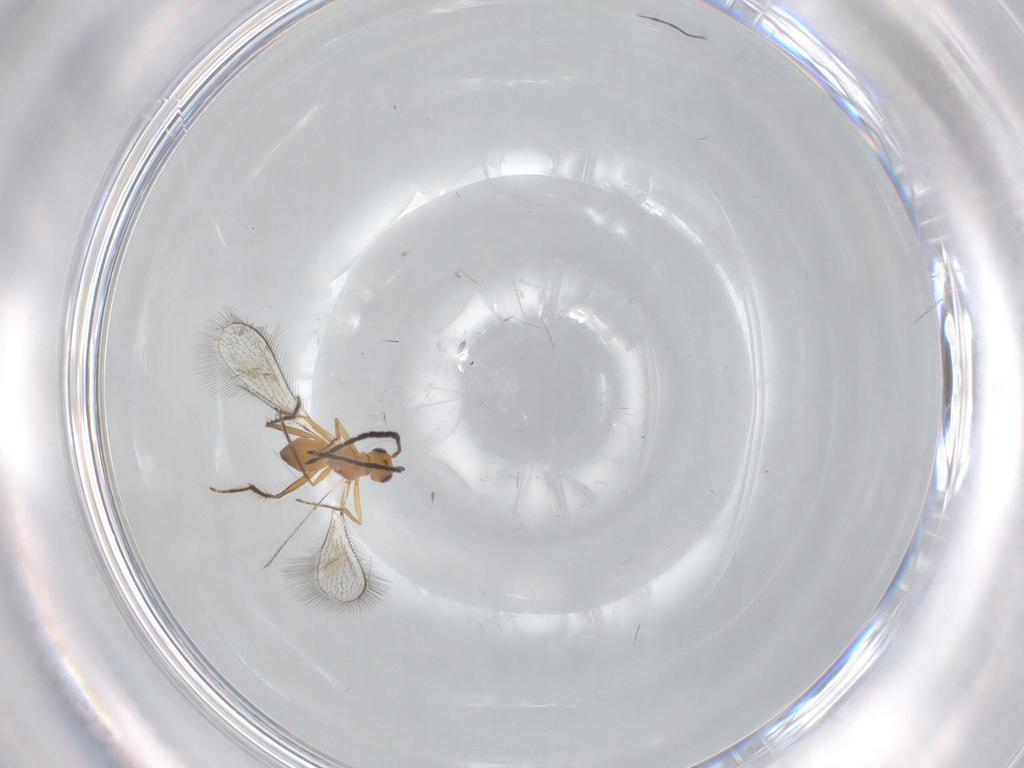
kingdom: Animalia
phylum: Arthropoda
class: Insecta
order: Hymenoptera
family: Mymaridae
